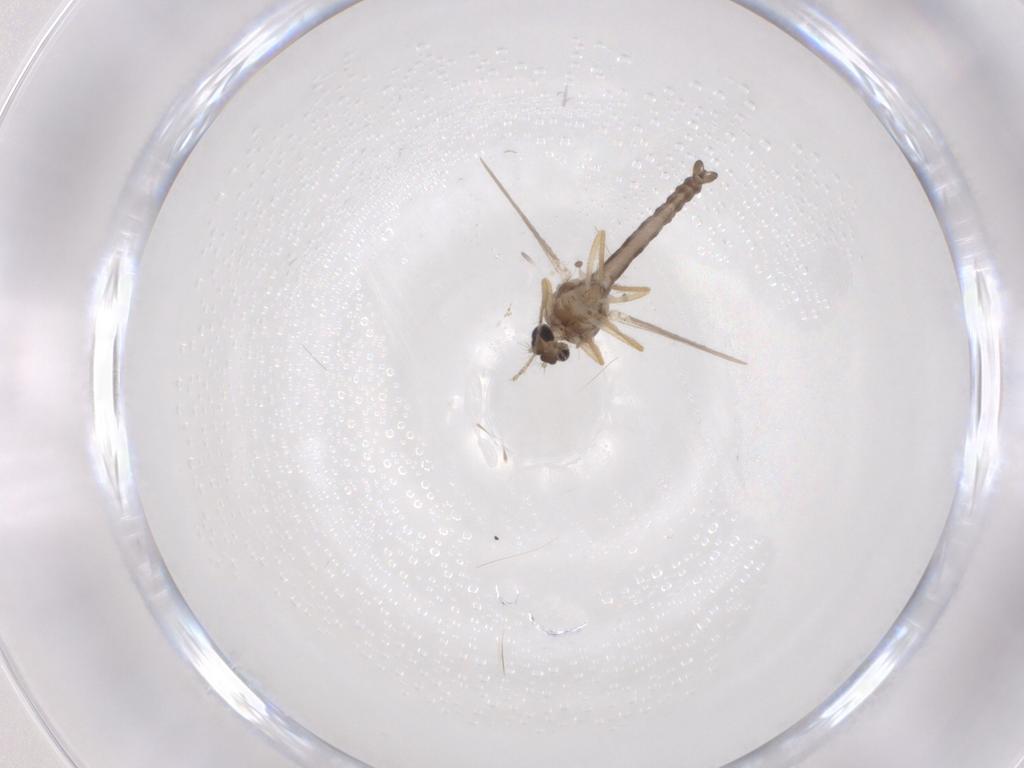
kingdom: Animalia
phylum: Arthropoda
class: Insecta
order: Diptera
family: Ceratopogonidae
